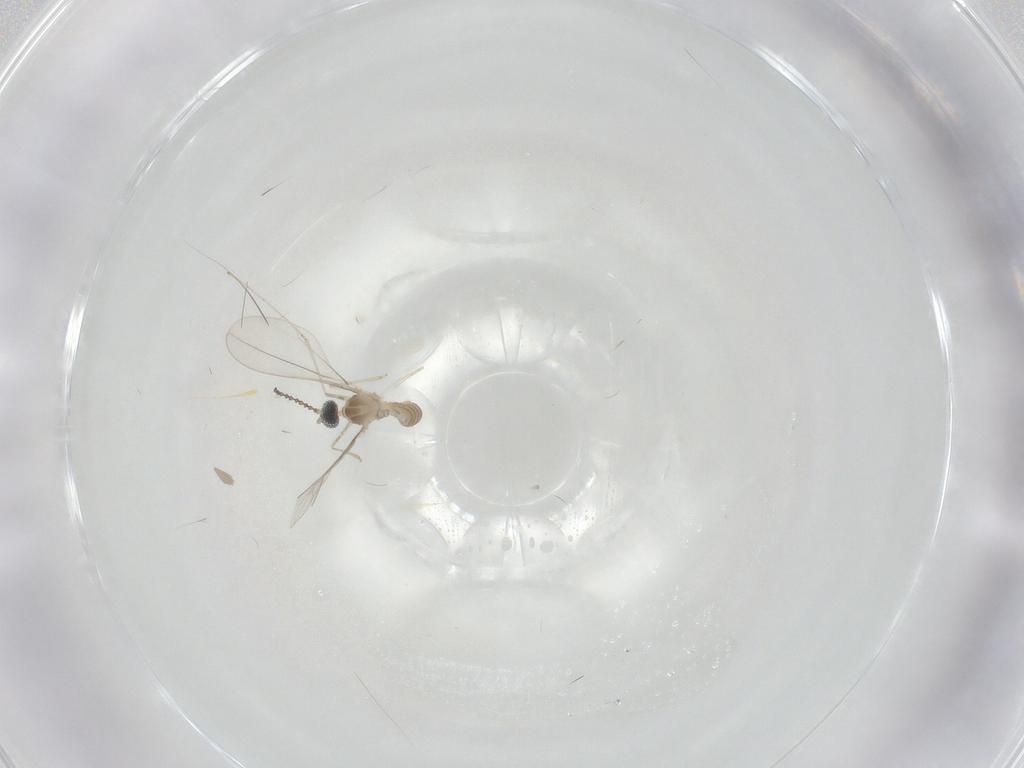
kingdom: Animalia
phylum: Arthropoda
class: Insecta
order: Diptera
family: Cecidomyiidae
